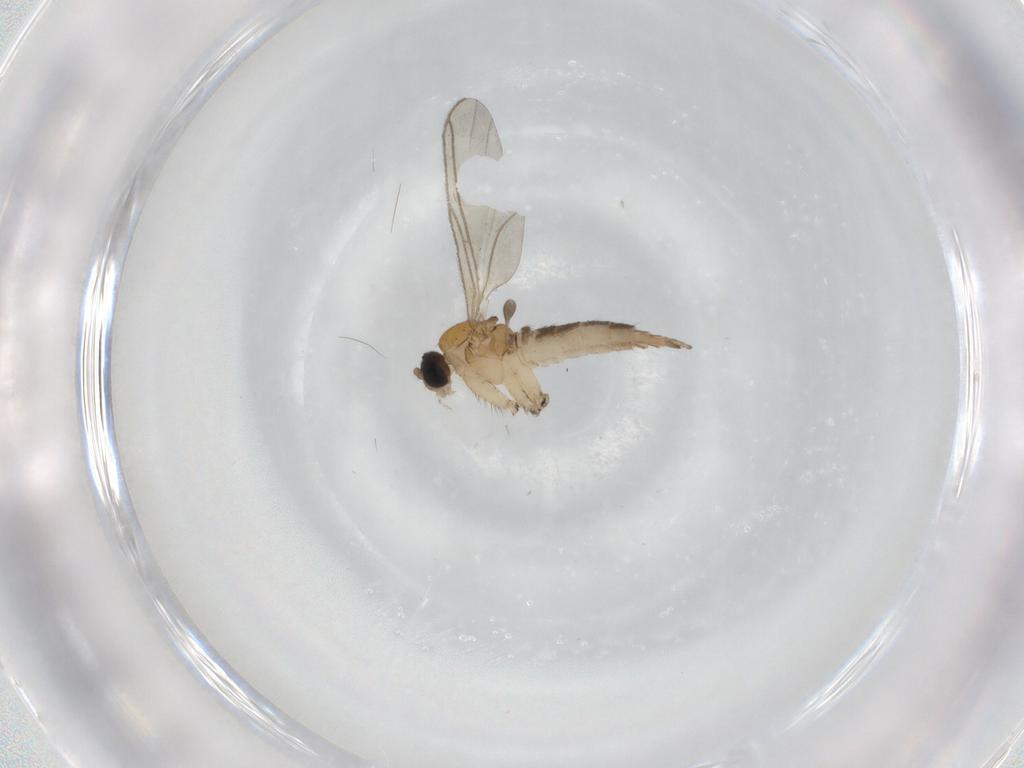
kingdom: Animalia
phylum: Arthropoda
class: Insecta
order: Diptera
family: Sciaridae
